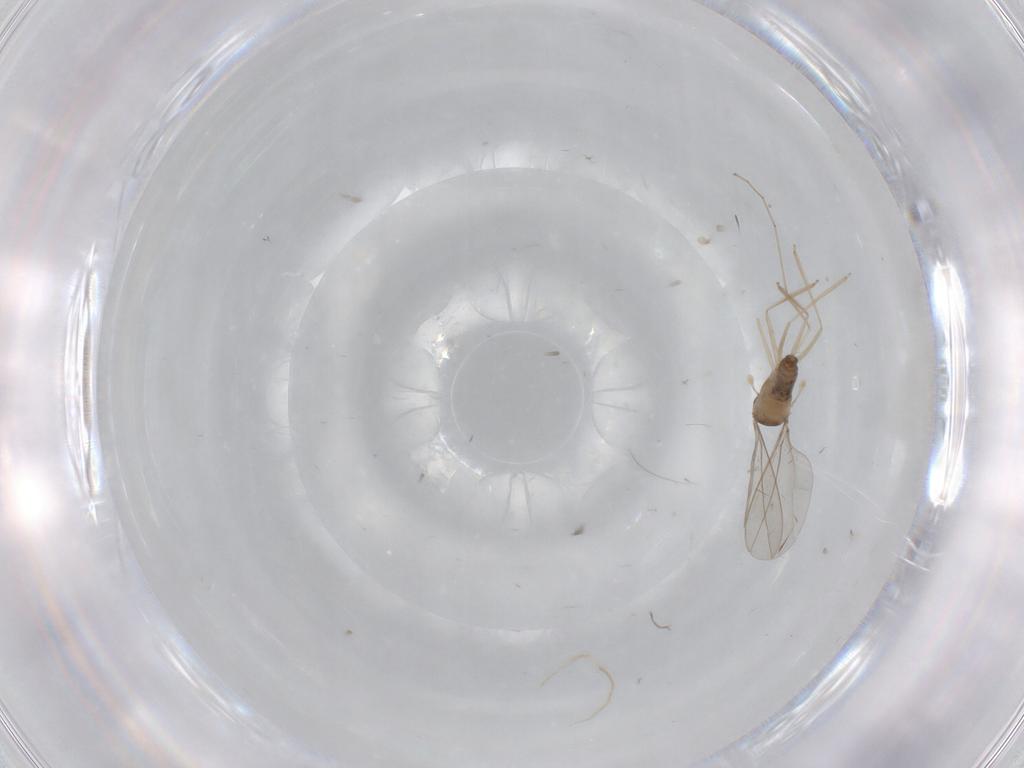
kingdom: Animalia
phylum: Arthropoda
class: Insecta
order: Diptera
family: Cecidomyiidae
